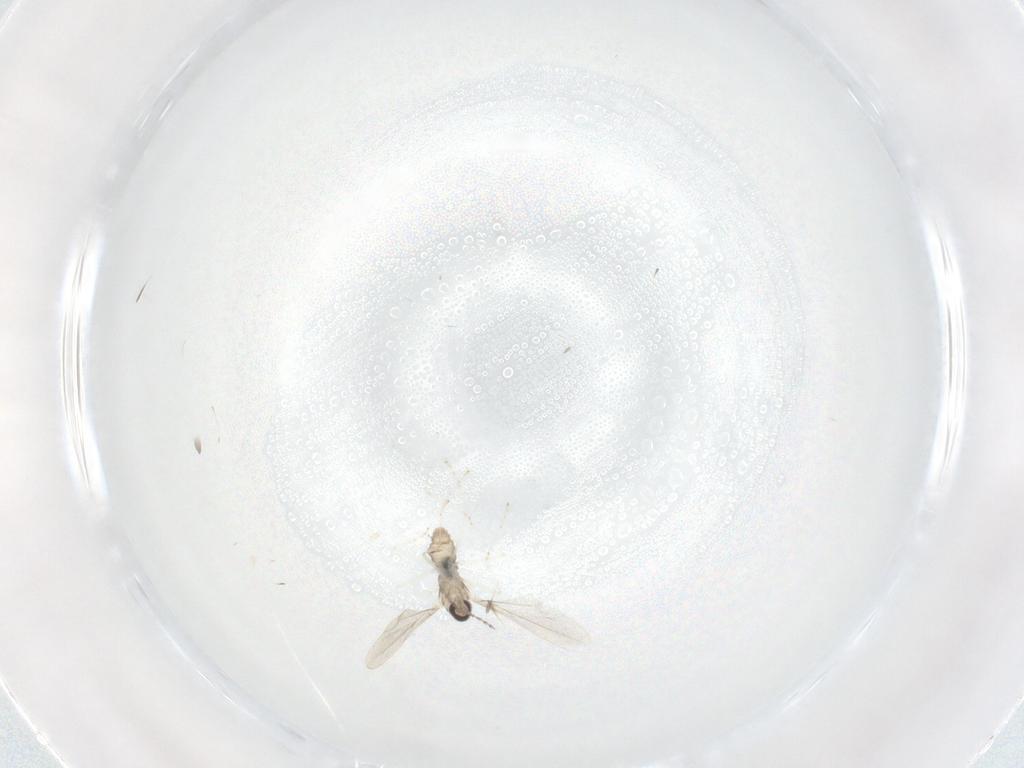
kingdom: Animalia
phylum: Arthropoda
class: Insecta
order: Diptera
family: Cecidomyiidae
